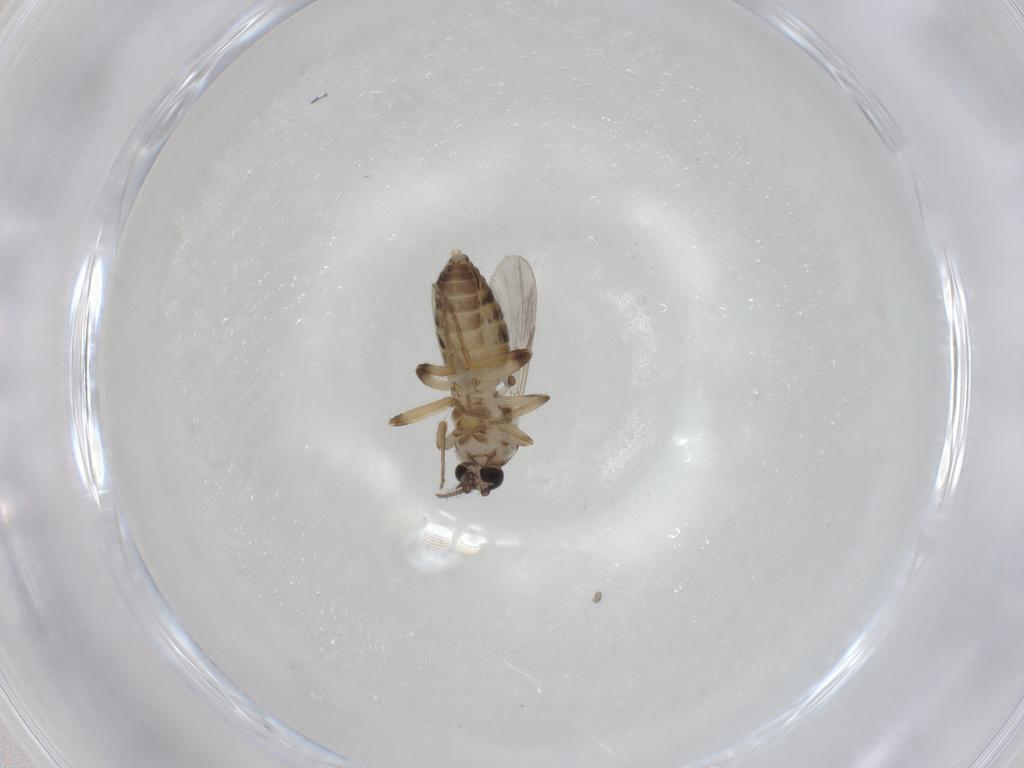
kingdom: Animalia
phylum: Arthropoda
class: Insecta
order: Diptera
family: Ceratopogonidae
